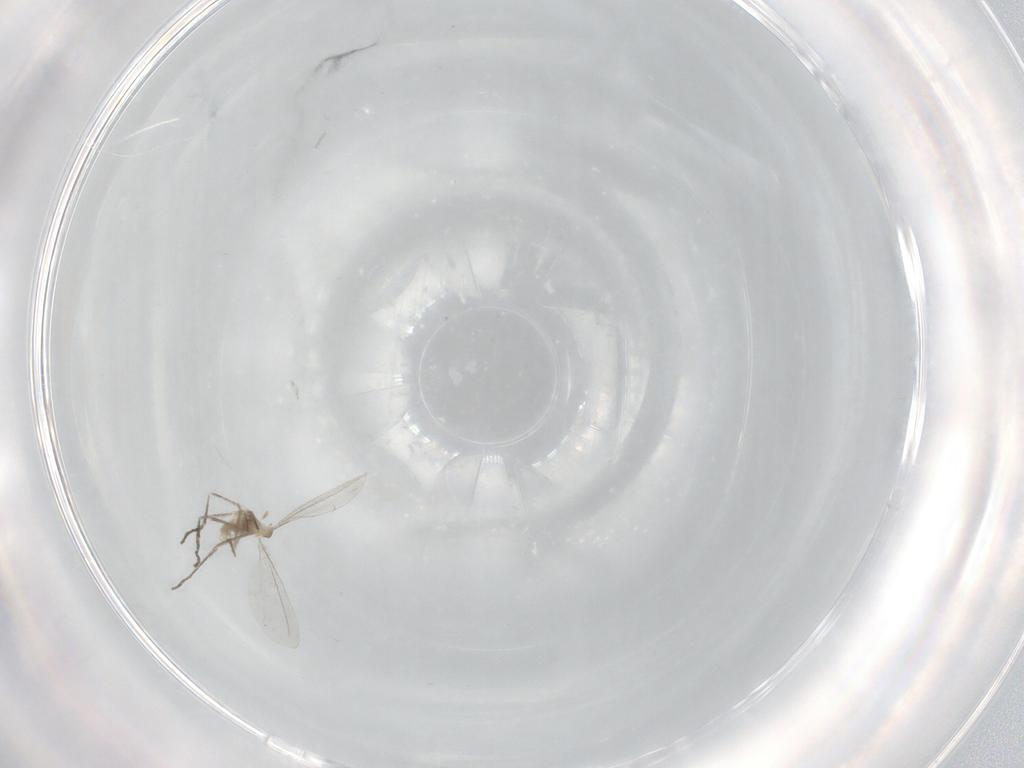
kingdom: Animalia
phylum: Arthropoda
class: Insecta
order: Diptera
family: Cecidomyiidae
